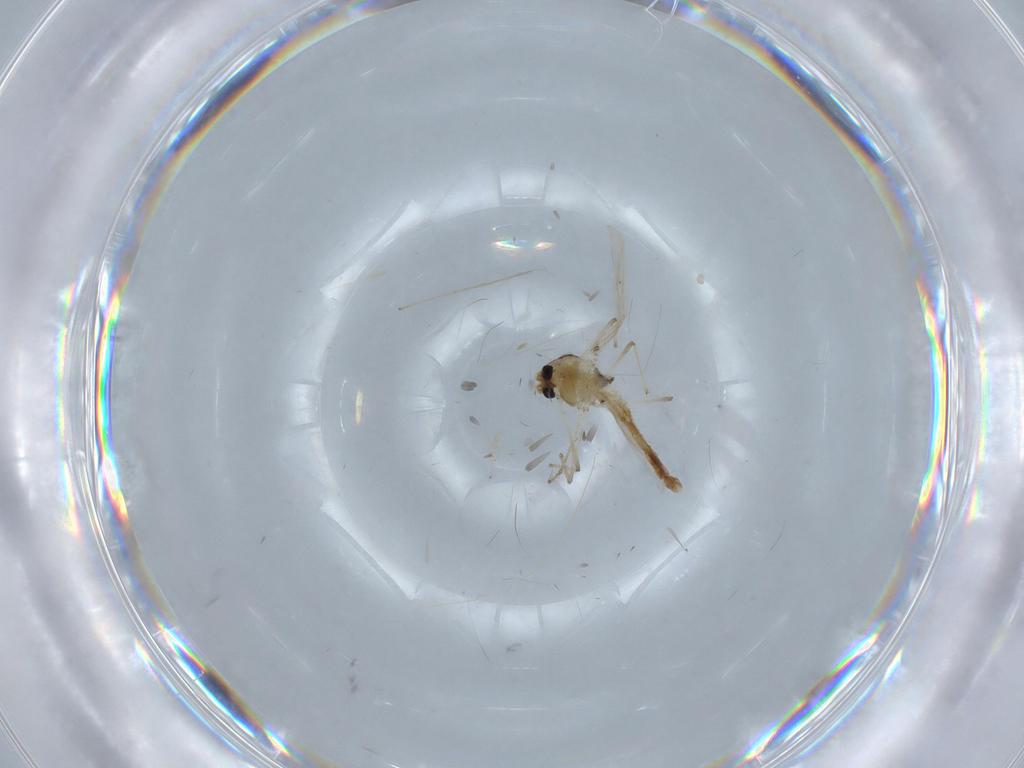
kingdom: Animalia
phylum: Arthropoda
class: Insecta
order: Diptera
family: Chironomidae
